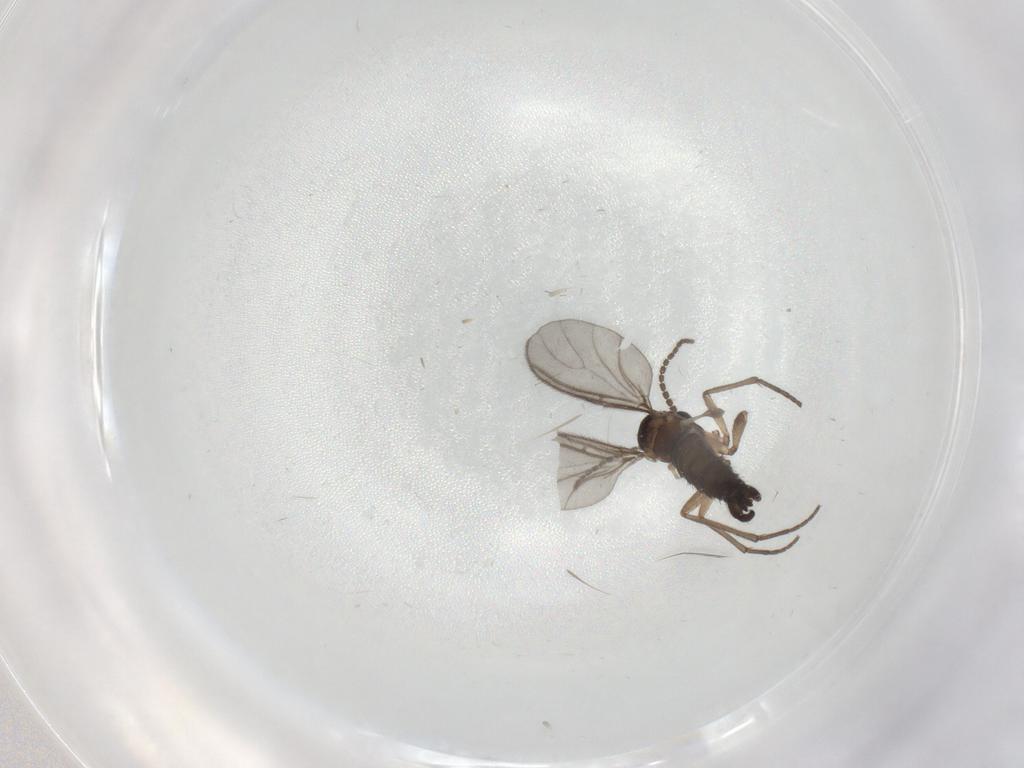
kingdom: Animalia
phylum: Arthropoda
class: Insecta
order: Diptera
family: Sciaridae
